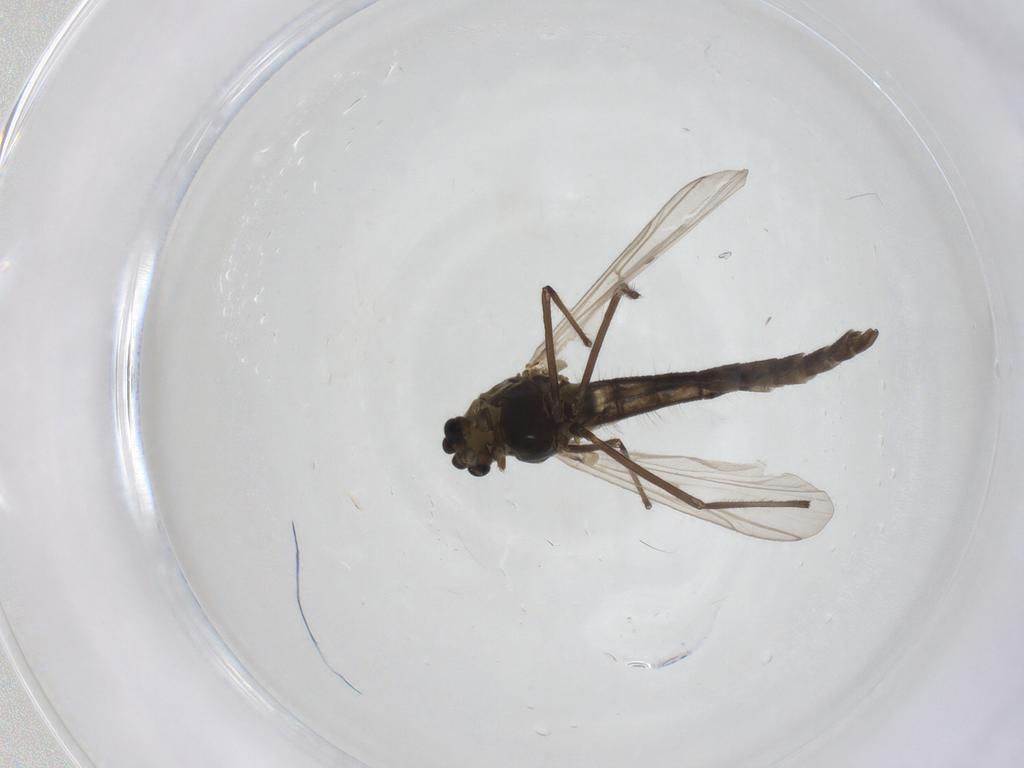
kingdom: Animalia
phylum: Arthropoda
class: Insecta
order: Diptera
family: Chironomidae
